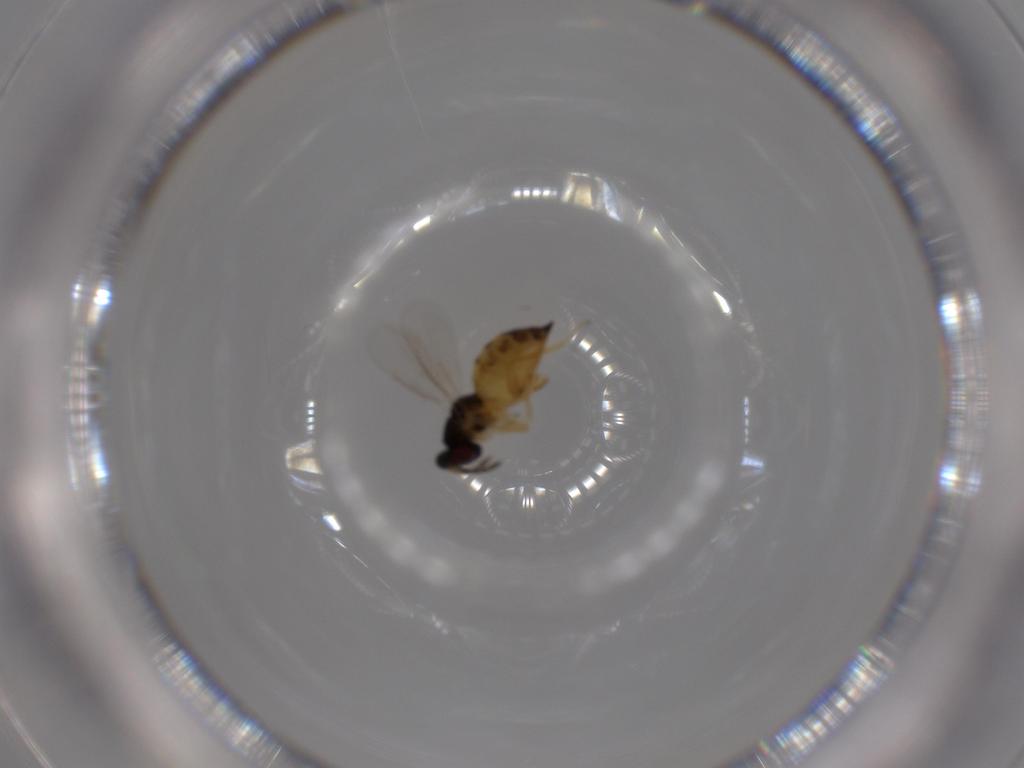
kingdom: Animalia
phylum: Arthropoda
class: Insecta
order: Hymenoptera
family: Eulophidae
